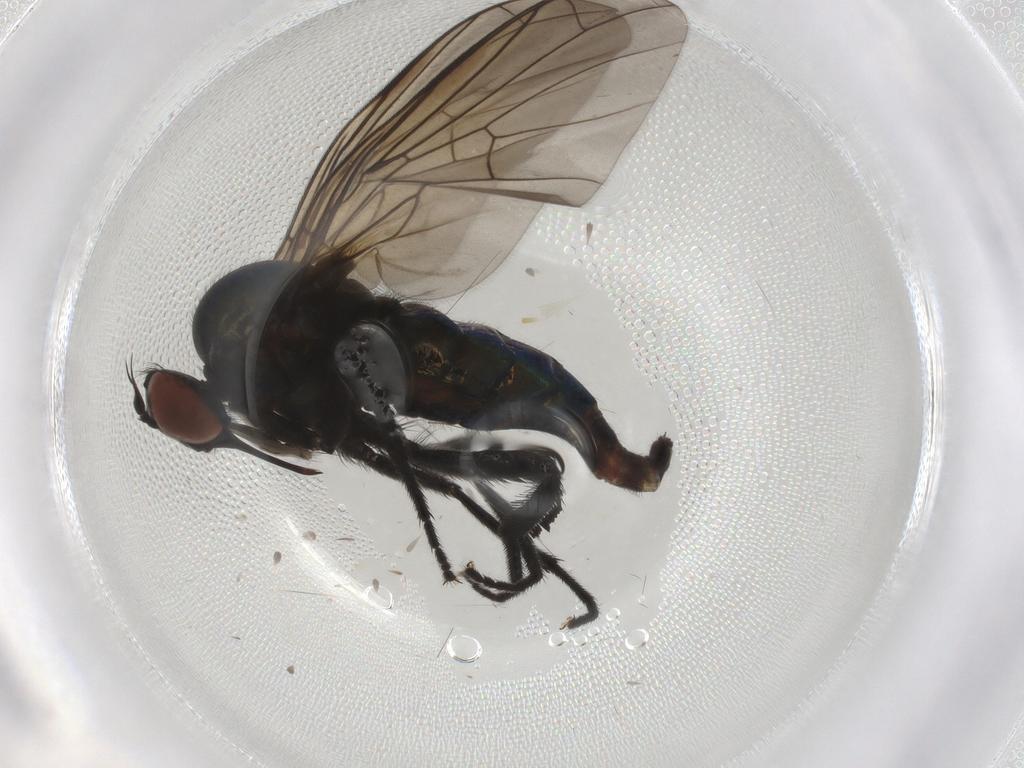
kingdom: Animalia
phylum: Arthropoda
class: Insecta
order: Diptera
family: Empididae
